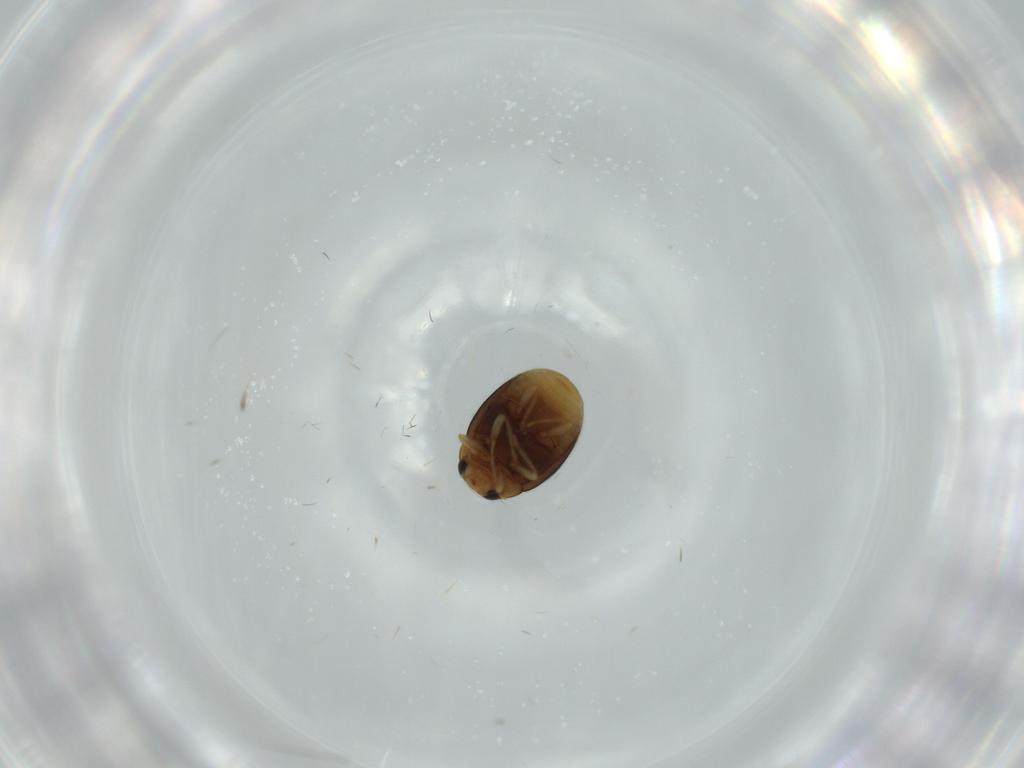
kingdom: Animalia
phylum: Arthropoda
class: Insecta
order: Coleoptera
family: Coccinellidae
